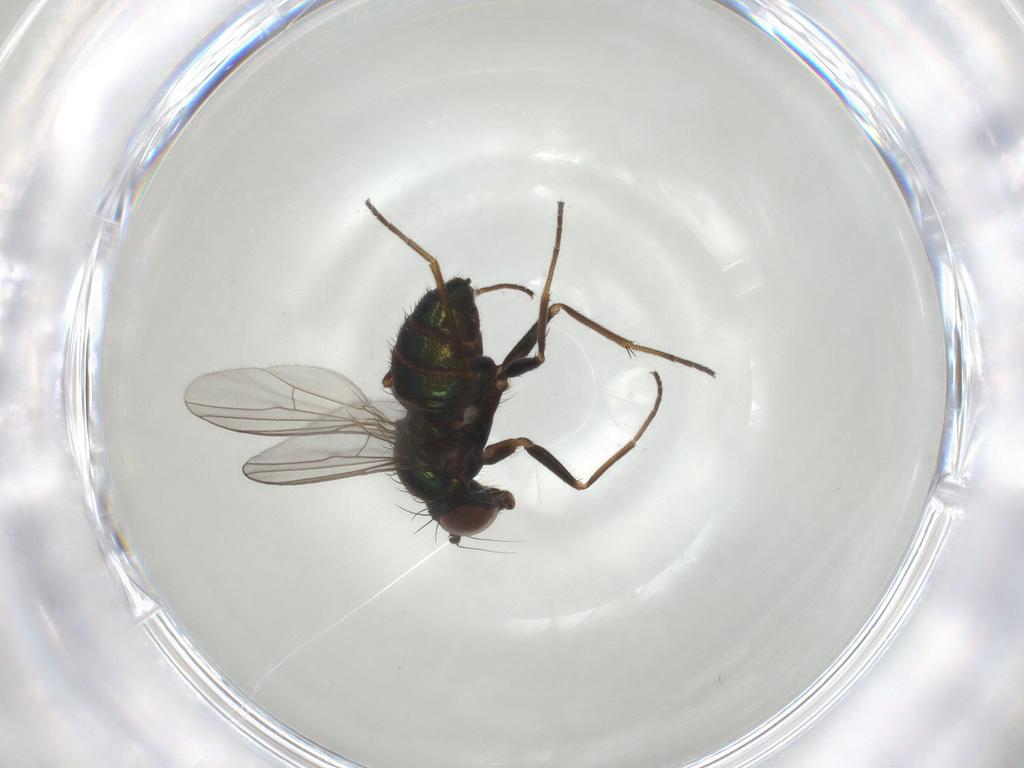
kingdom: Animalia
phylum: Arthropoda
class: Insecta
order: Diptera
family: Dolichopodidae
